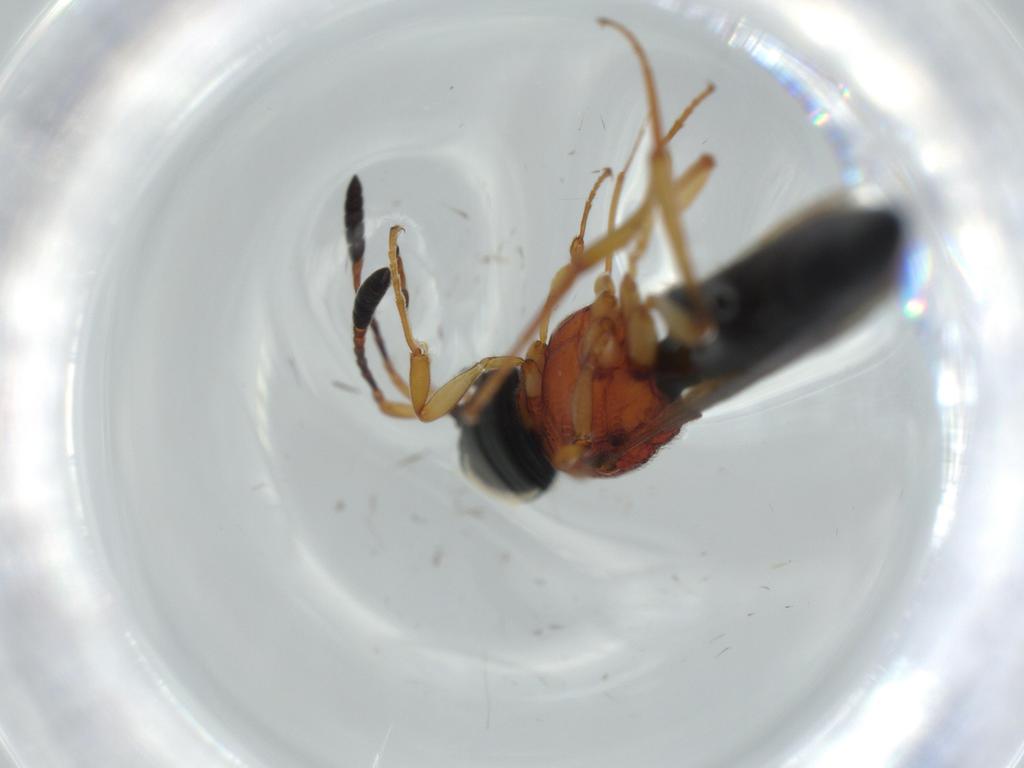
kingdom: Animalia
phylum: Arthropoda
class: Insecta
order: Hymenoptera
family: Scelionidae
